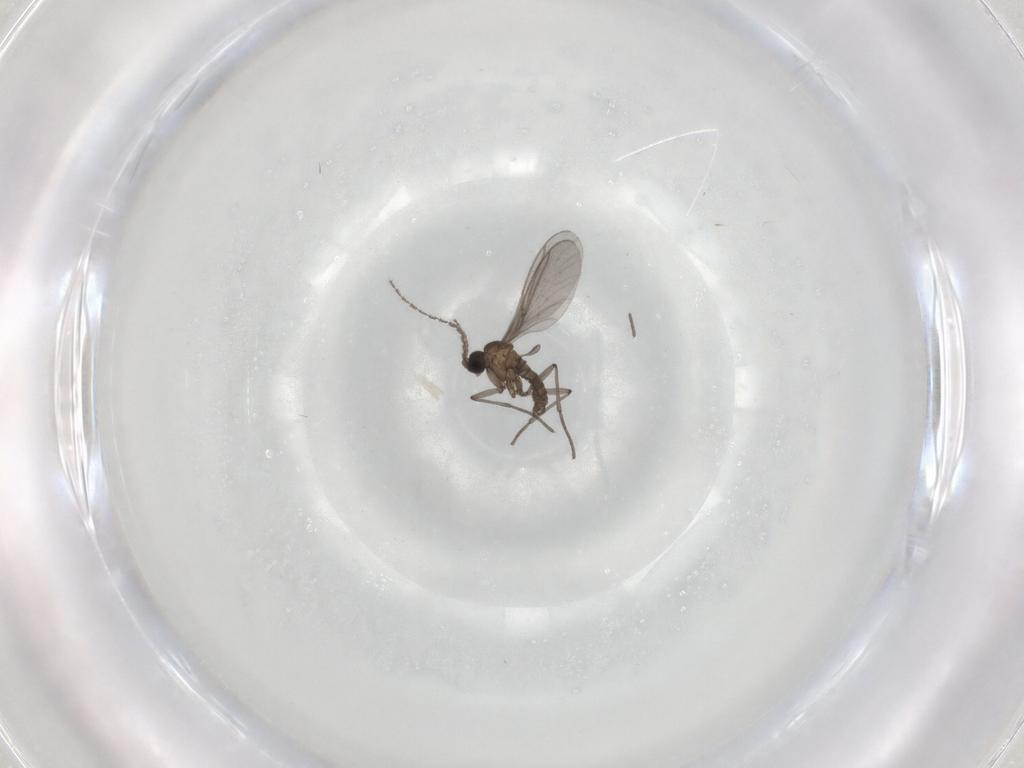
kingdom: Animalia
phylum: Arthropoda
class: Insecta
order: Diptera
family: Sciaridae
